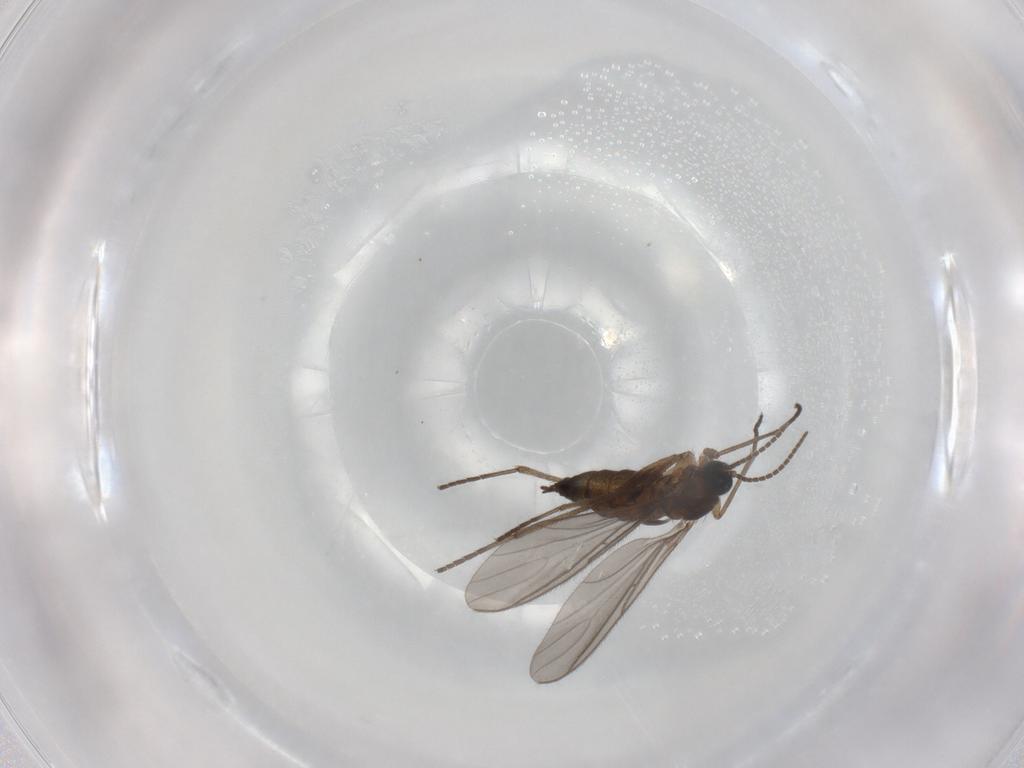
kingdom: Animalia
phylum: Arthropoda
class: Insecta
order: Diptera
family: Sciaridae
